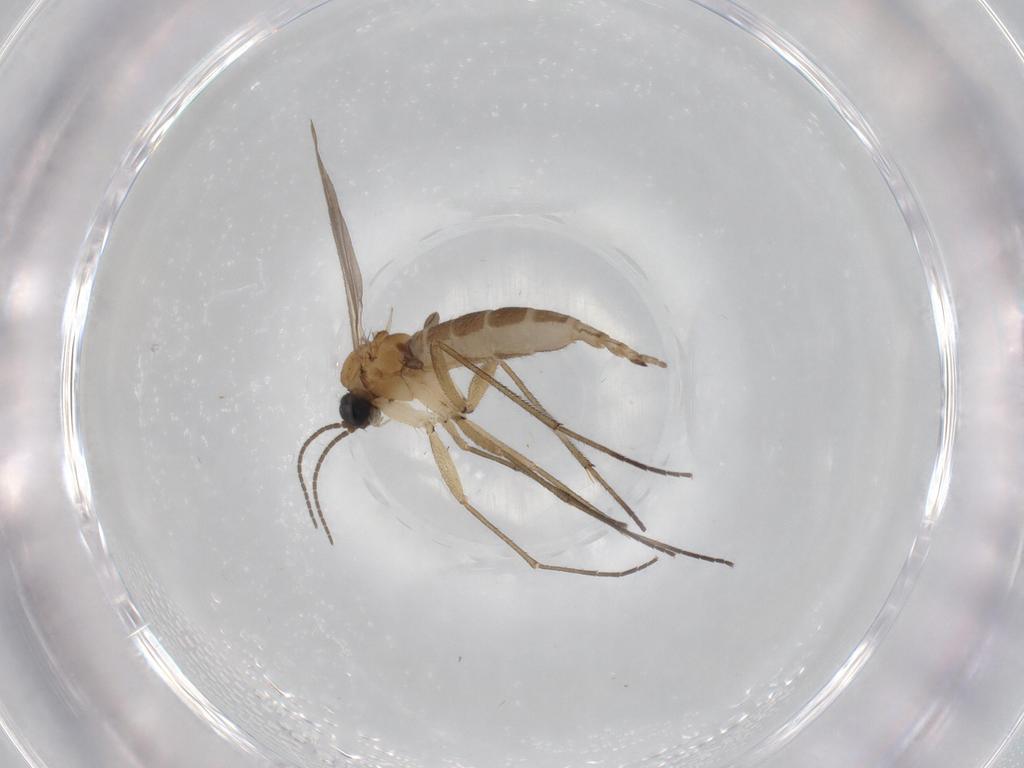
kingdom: Animalia
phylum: Arthropoda
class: Insecta
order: Diptera
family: Psychodidae
